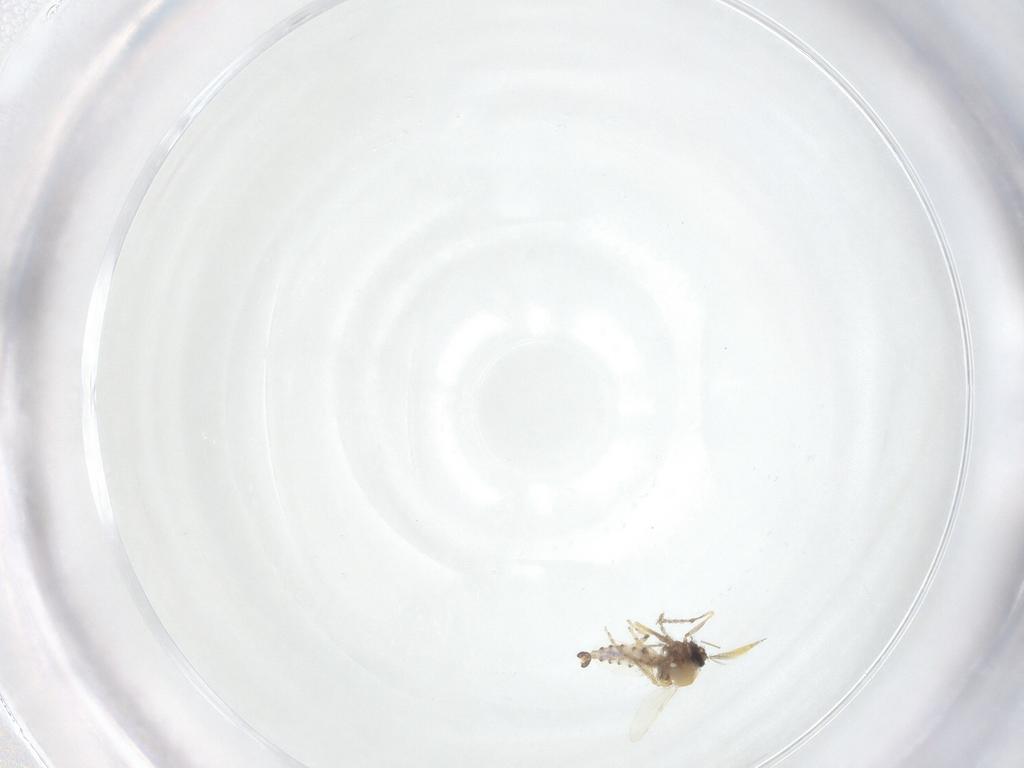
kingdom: Animalia
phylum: Arthropoda
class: Insecta
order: Diptera
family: Ceratopogonidae
